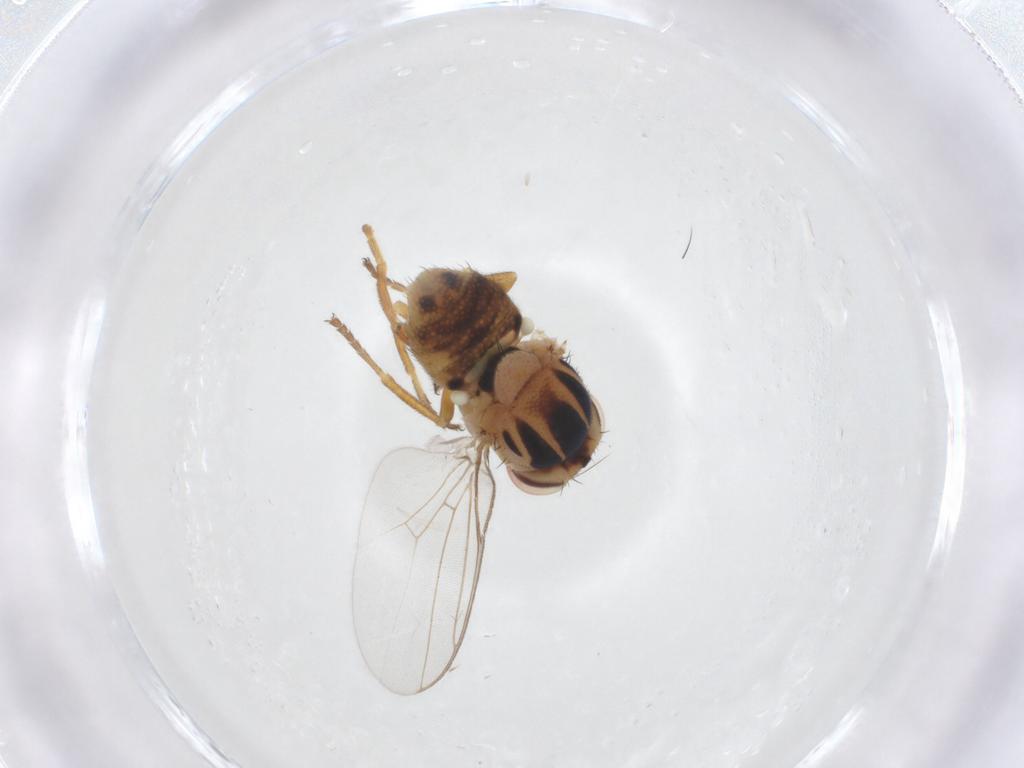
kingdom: Animalia
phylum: Arthropoda
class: Insecta
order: Diptera
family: Chloropidae
